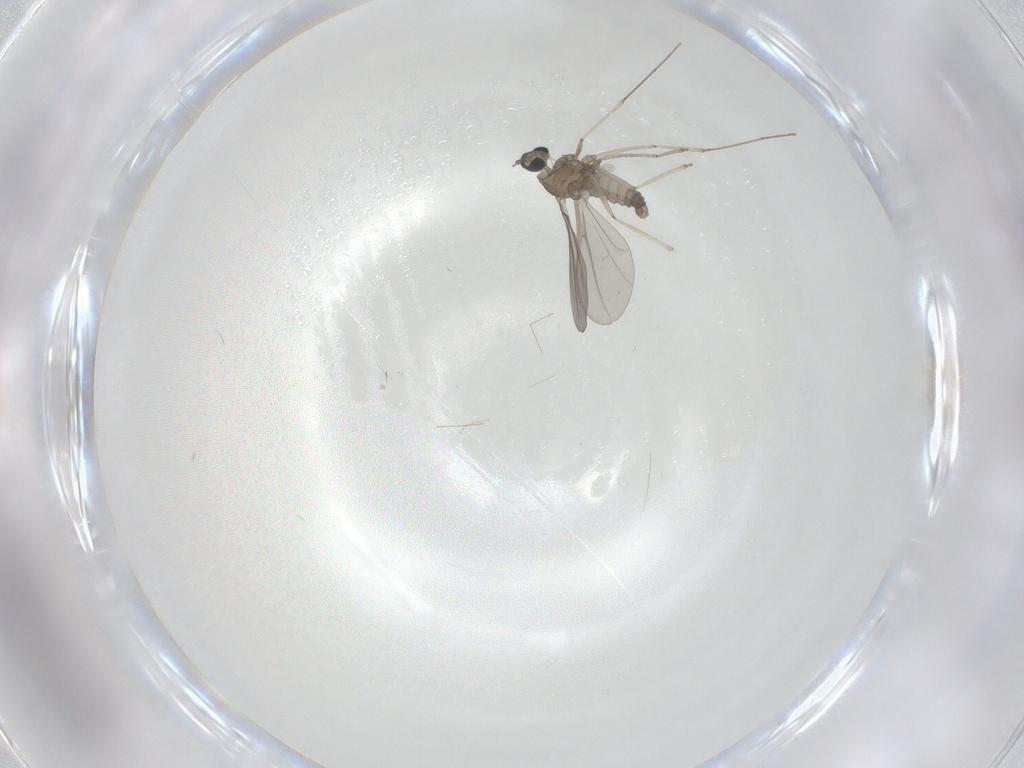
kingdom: Animalia
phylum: Arthropoda
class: Insecta
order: Diptera
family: Cecidomyiidae
